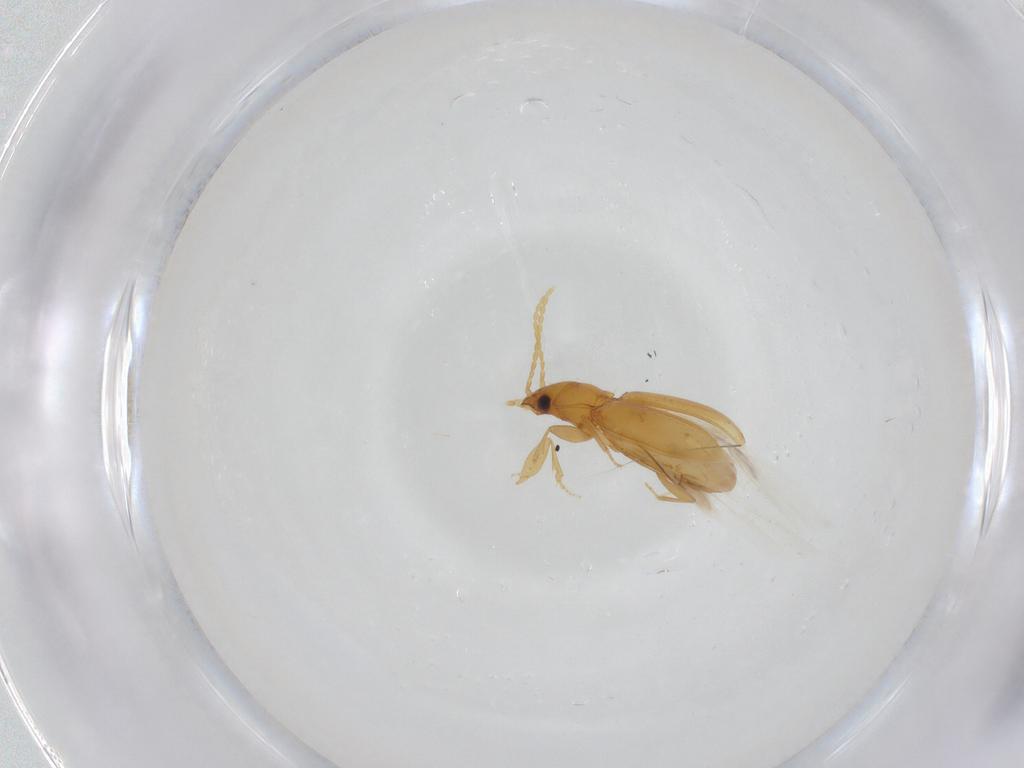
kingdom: Animalia
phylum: Arthropoda
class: Insecta
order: Coleoptera
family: Carabidae
